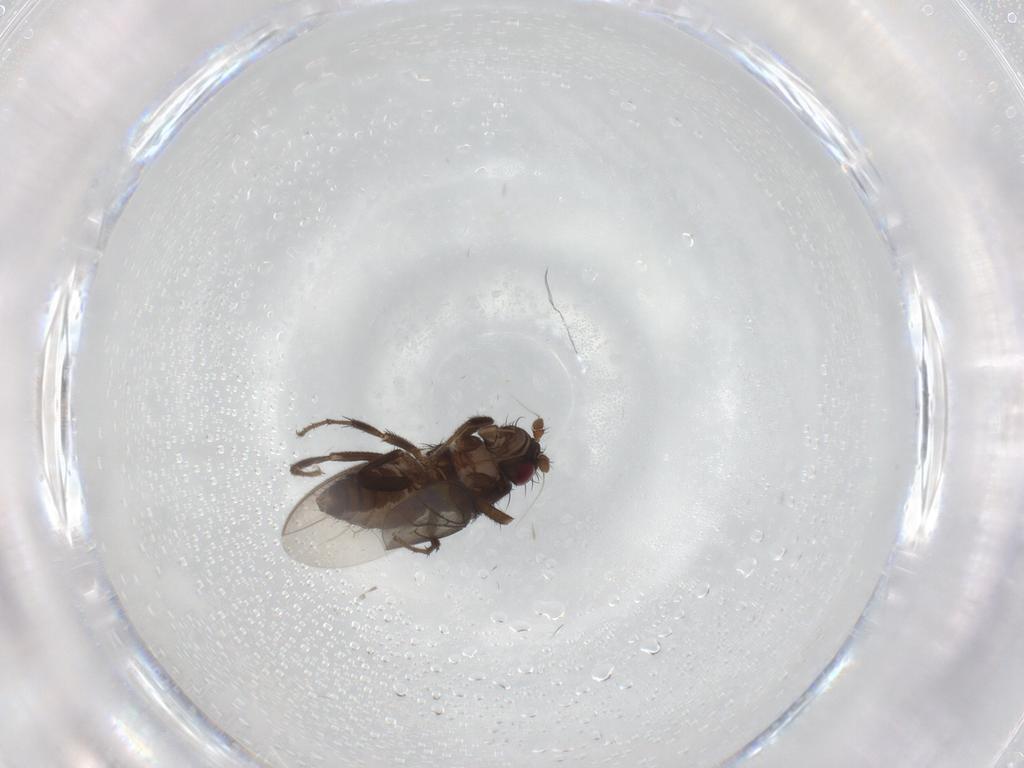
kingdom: Animalia
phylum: Arthropoda
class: Insecta
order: Diptera
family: Sphaeroceridae
